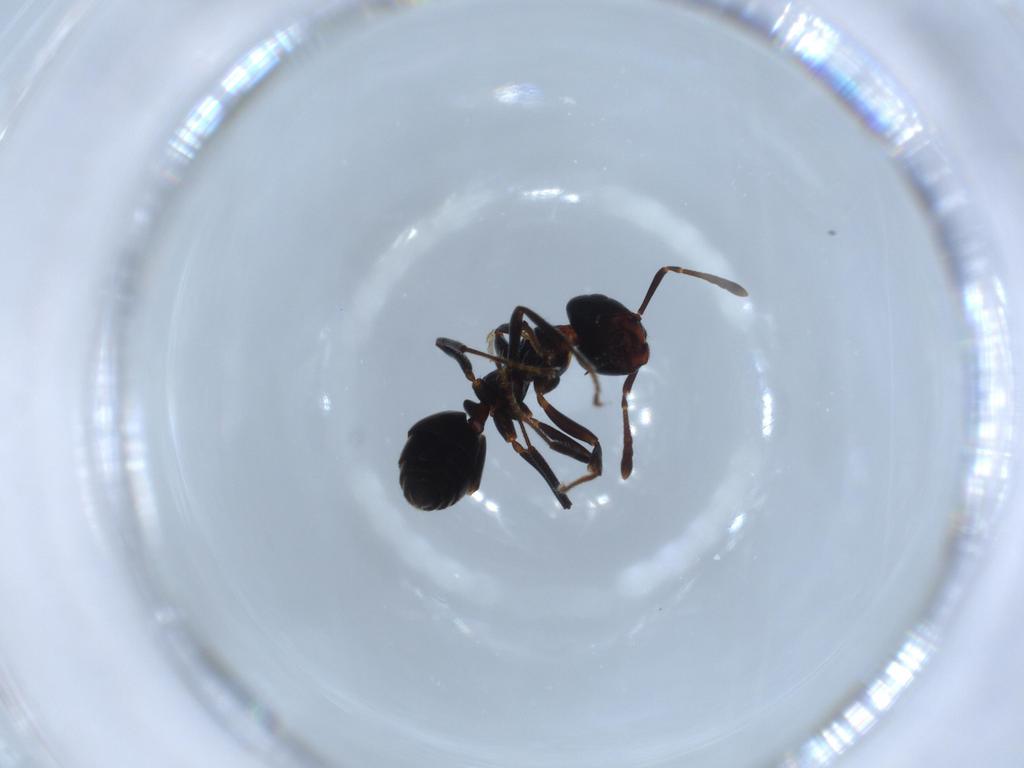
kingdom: Animalia
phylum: Arthropoda
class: Insecta
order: Hymenoptera
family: Formicidae
